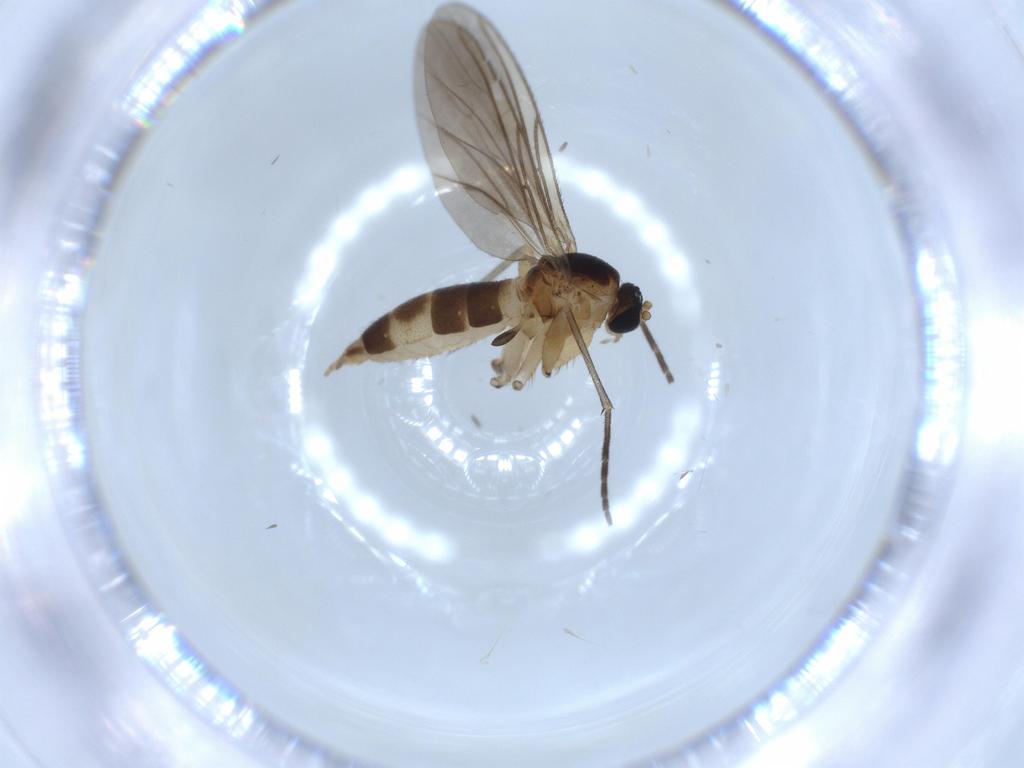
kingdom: Animalia
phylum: Arthropoda
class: Insecta
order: Diptera
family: Sciaridae
